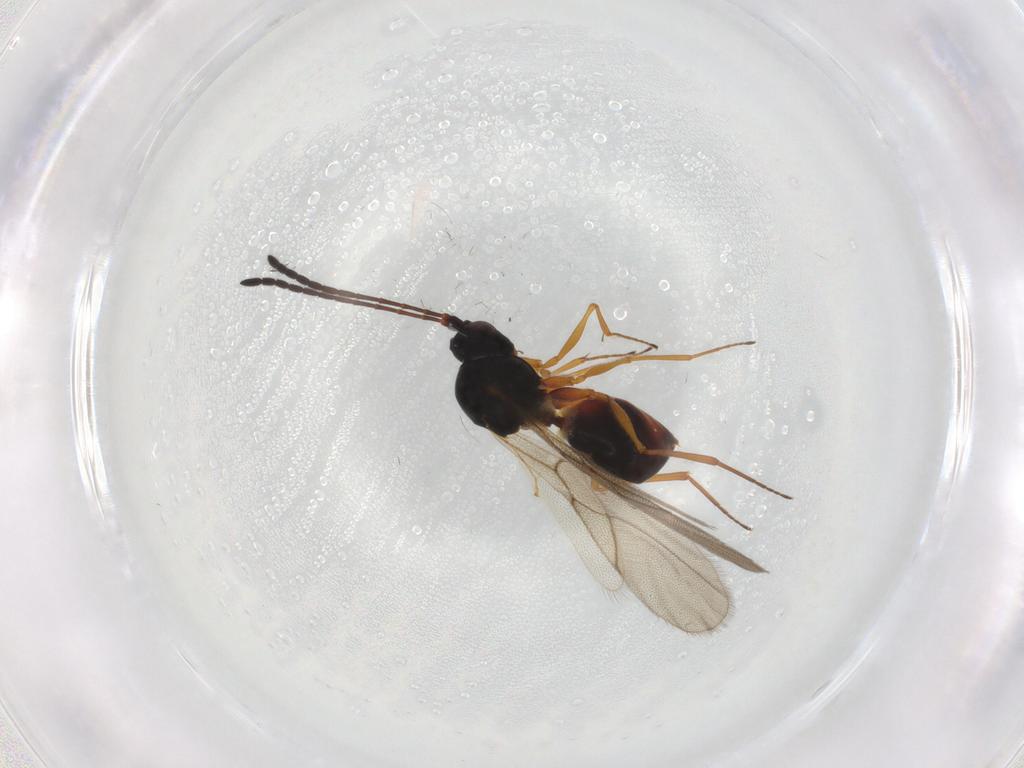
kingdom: Animalia
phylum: Arthropoda
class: Insecta
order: Hymenoptera
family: Figitidae
